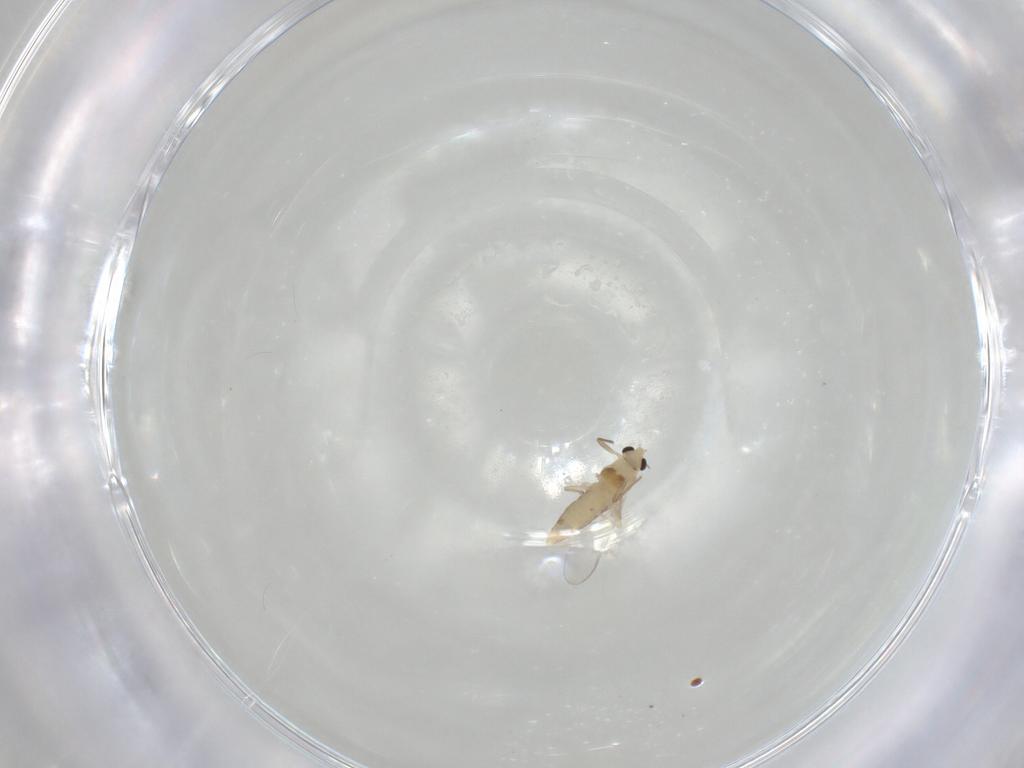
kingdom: Animalia
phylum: Arthropoda
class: Insecta
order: Diptera
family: Chironomidae
